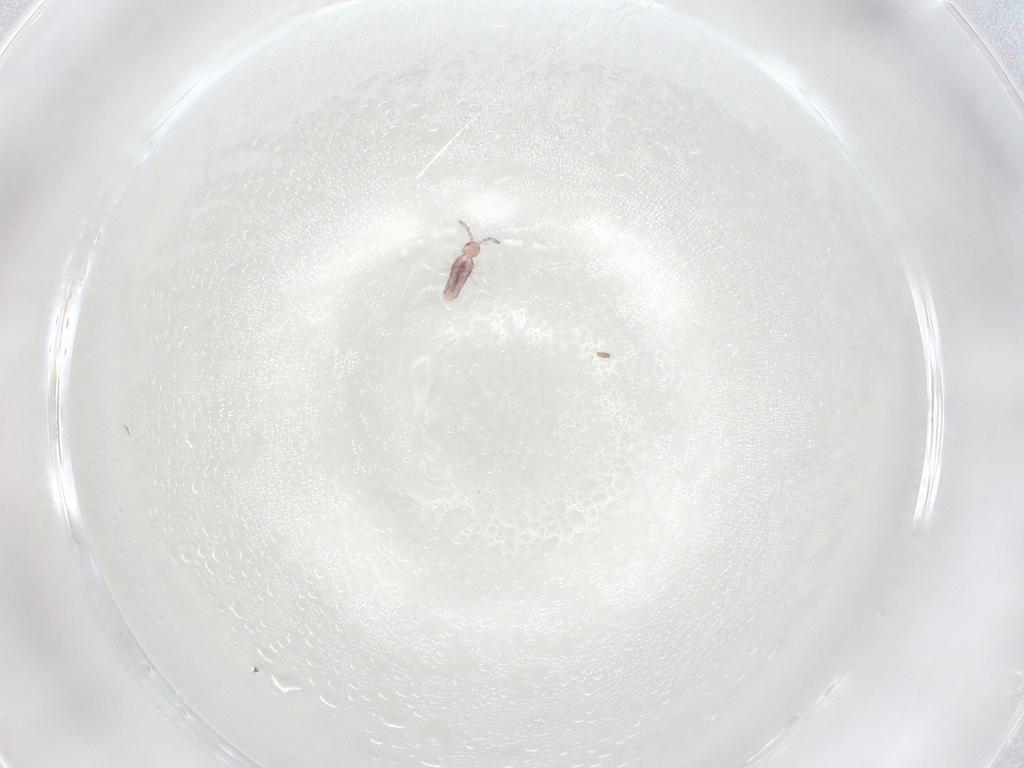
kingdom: Animalia
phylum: Arthropoda
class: Collembola
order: Entomobryomorpha
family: Entomobryidae
